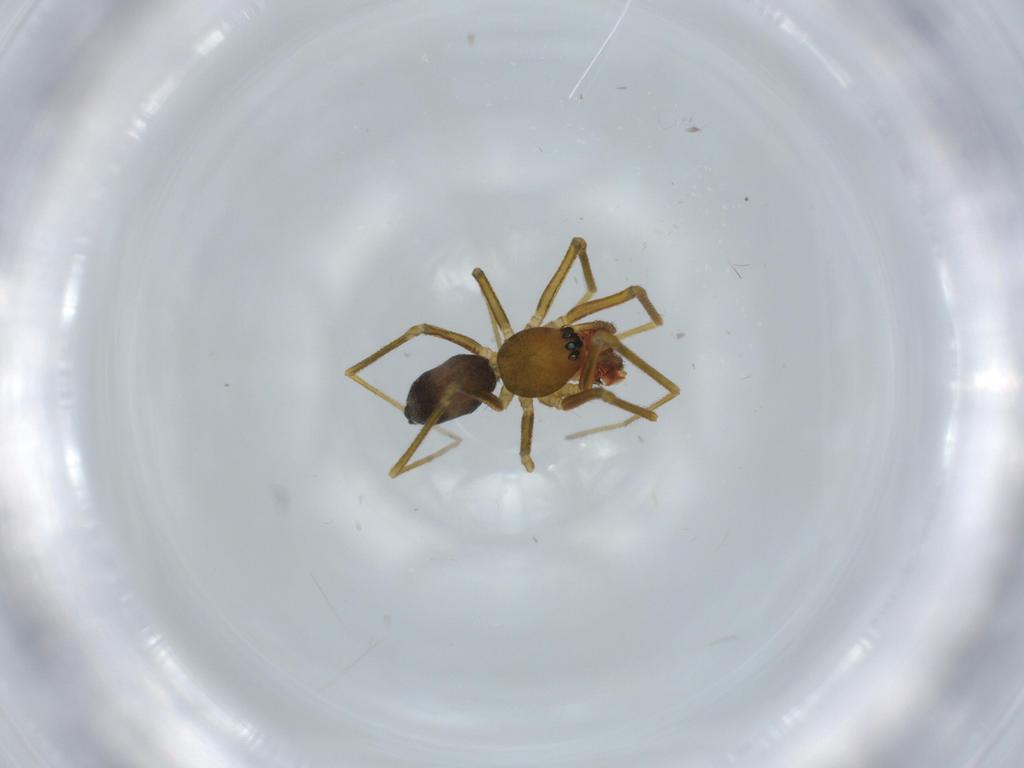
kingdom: Animalia
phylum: Arthropoda
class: Arachnida
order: Araneae
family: Linyphiidae
